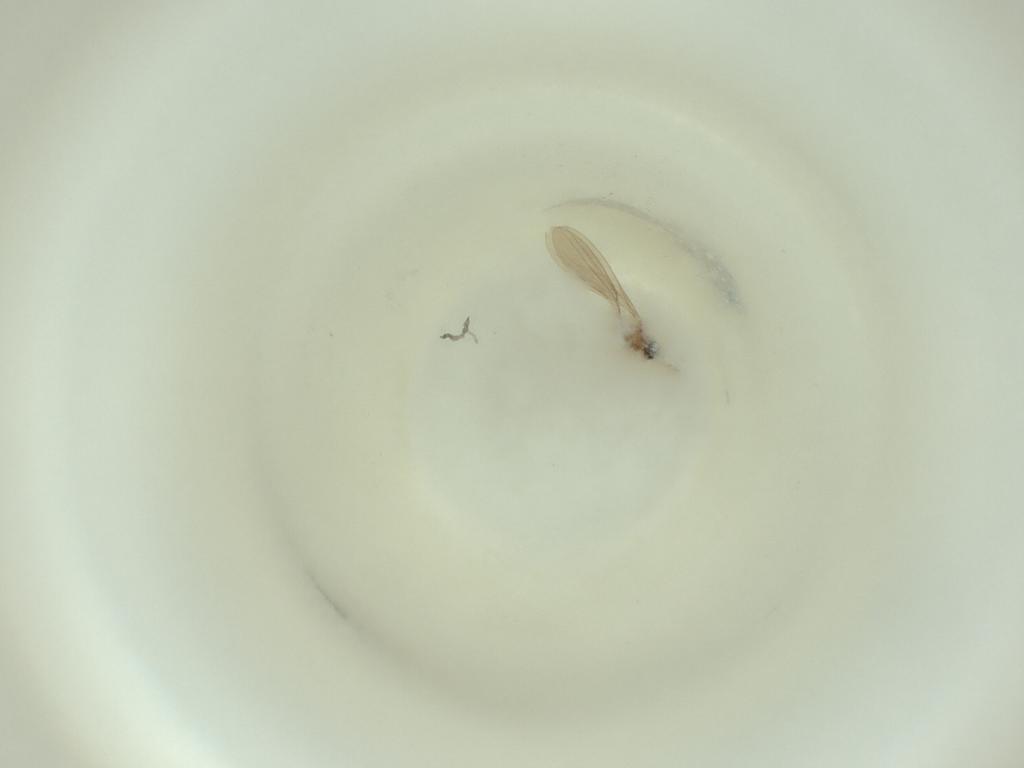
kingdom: Animalia
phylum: Arthropoda
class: Insecta
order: Diptera
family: Cecidomyiidae
